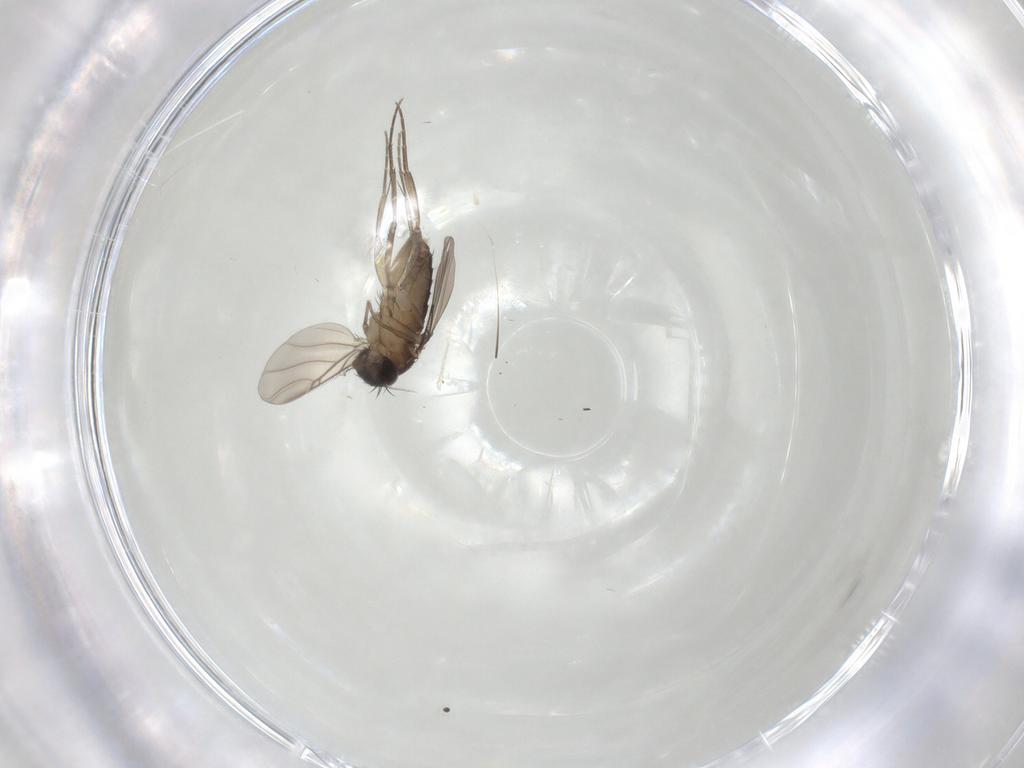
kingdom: Animalia
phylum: Arthropoda
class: Insecta
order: Diptera
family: Phoridae
